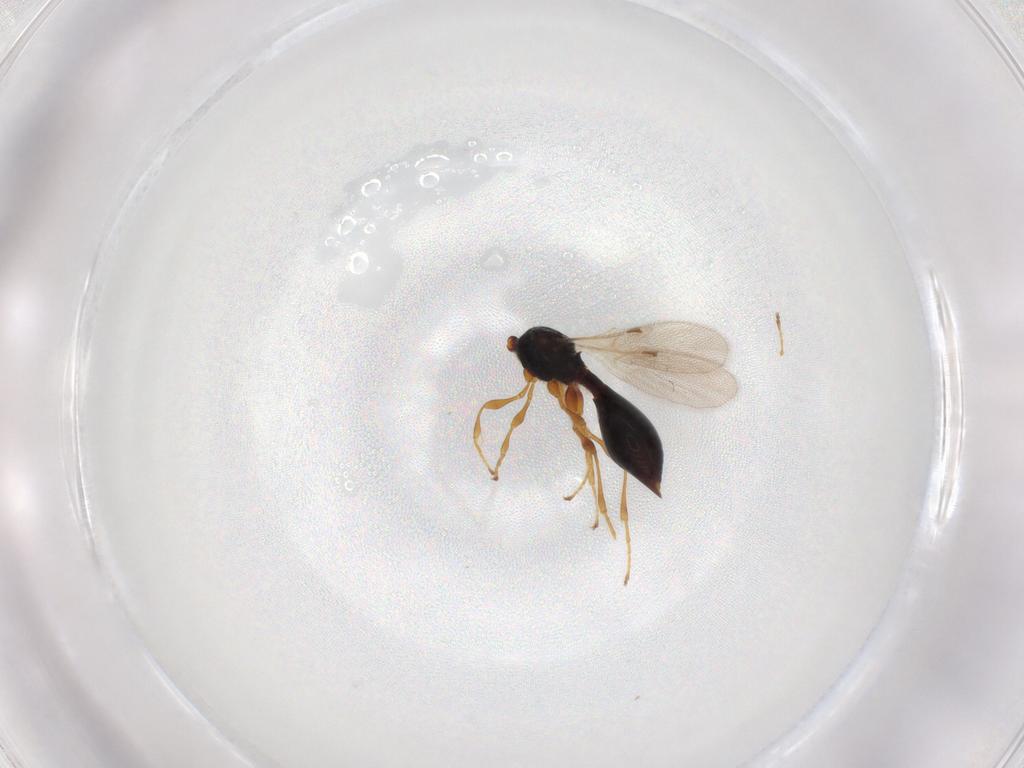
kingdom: Animalia
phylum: Arthropoda
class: Insecta
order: Hymenoptera
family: Diapriidae
